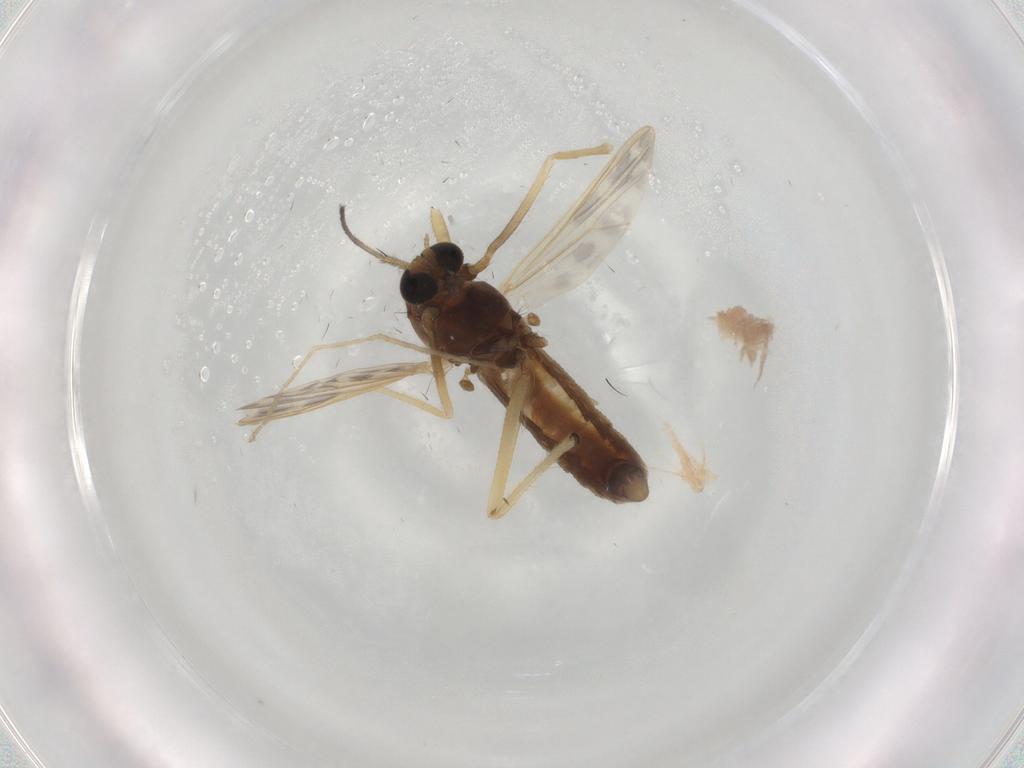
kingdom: Animalia
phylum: Arthropoda
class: Insecta
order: Diptera
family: Chironomidae
